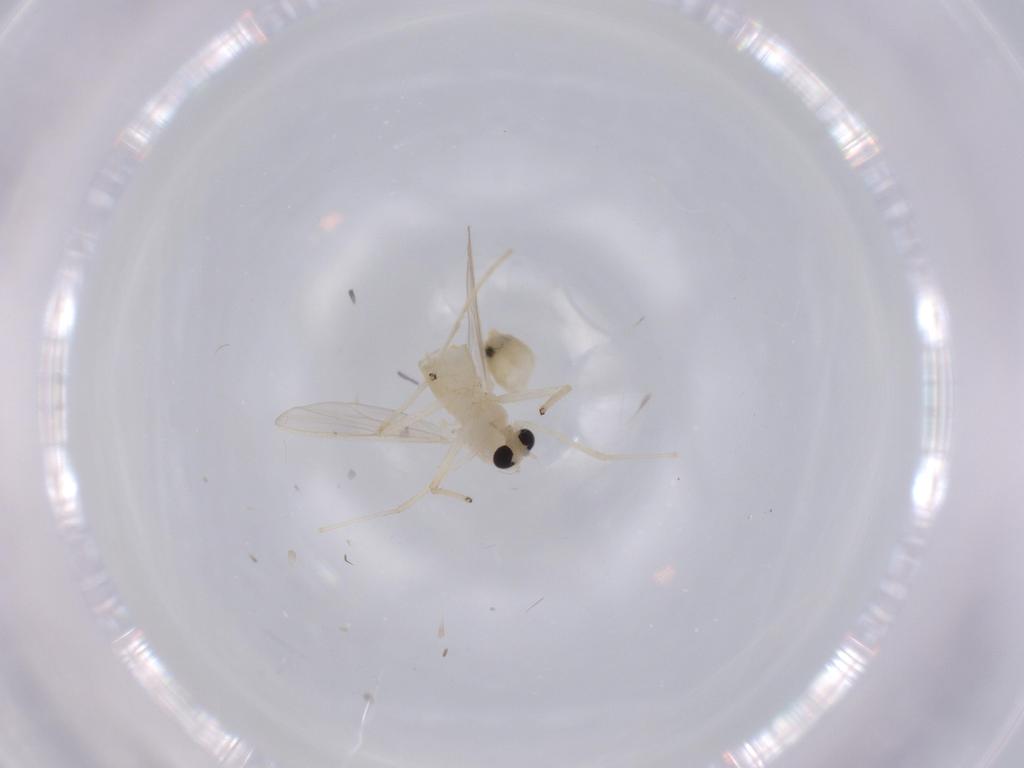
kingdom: Animalia
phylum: Arthropoda
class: Insecta
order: Diptera
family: Chironomidae
